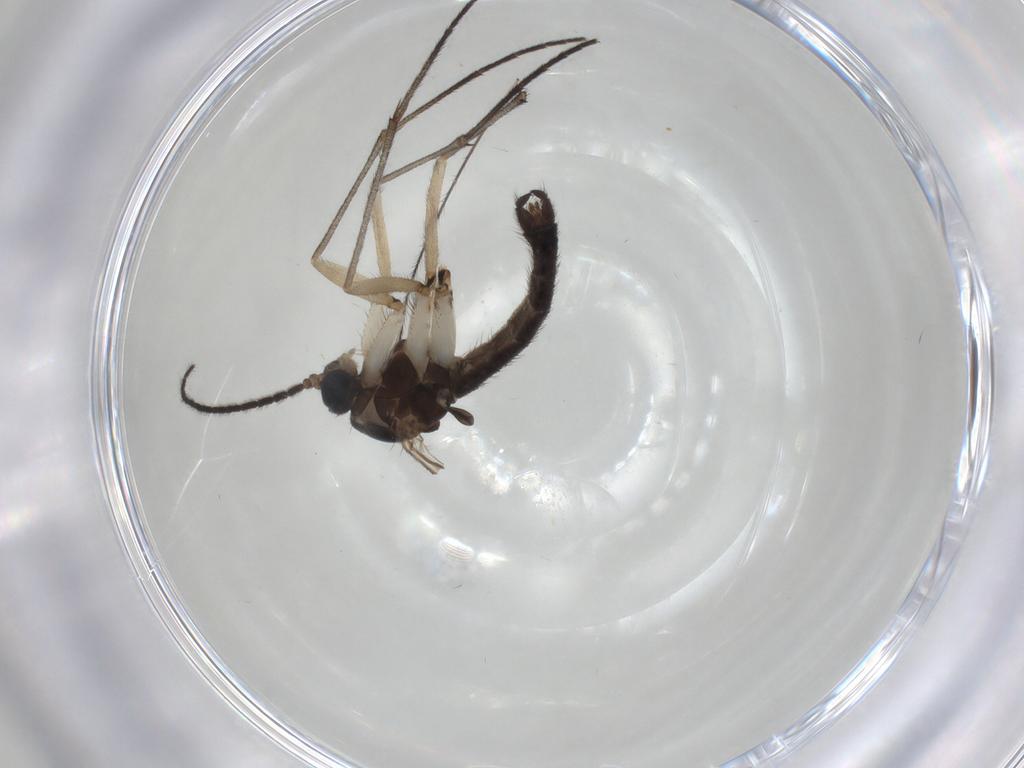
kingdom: Animalia
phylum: Arthropoda
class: Insecta
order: Diptera
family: Sciaridae
